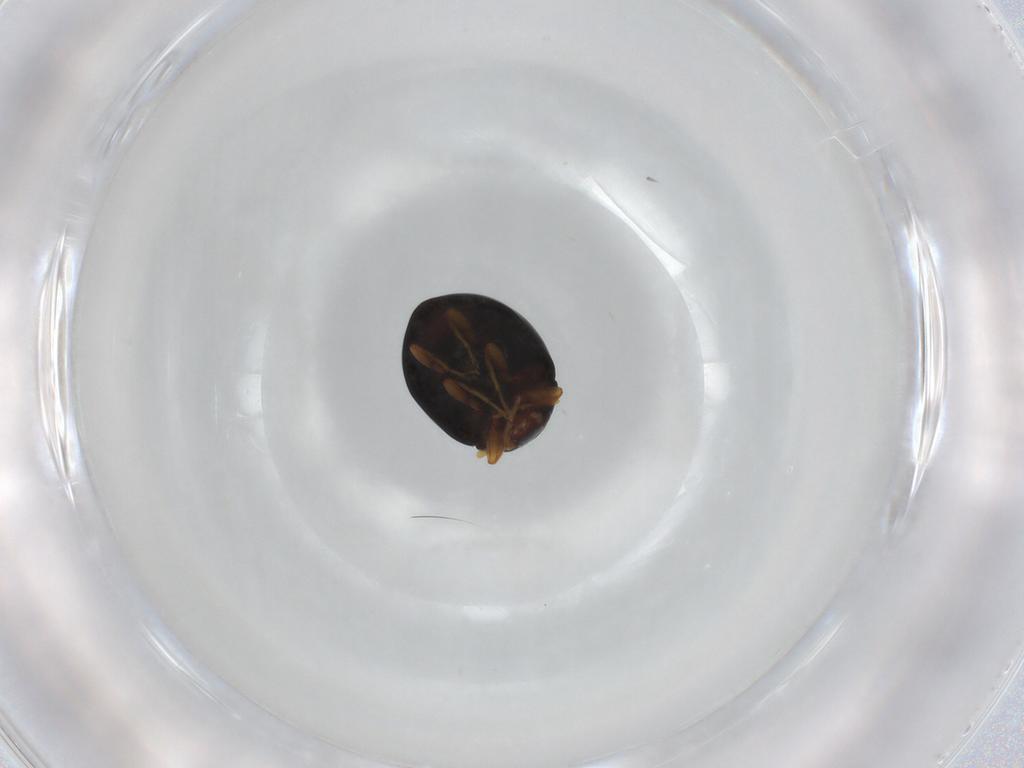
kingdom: Animalia
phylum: Arthropoda
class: Insecta
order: Coleoptera
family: Coccinellidae
